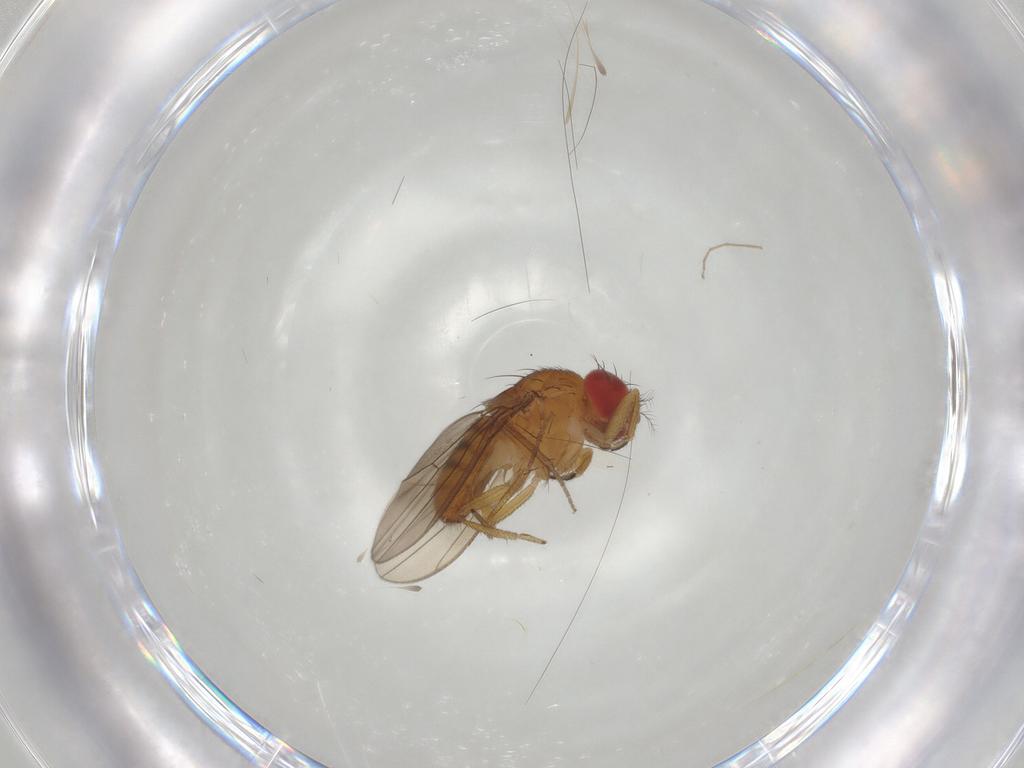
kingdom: Animalia
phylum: Arthropoda
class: Insecta
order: Diptera
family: Drosophilidae
